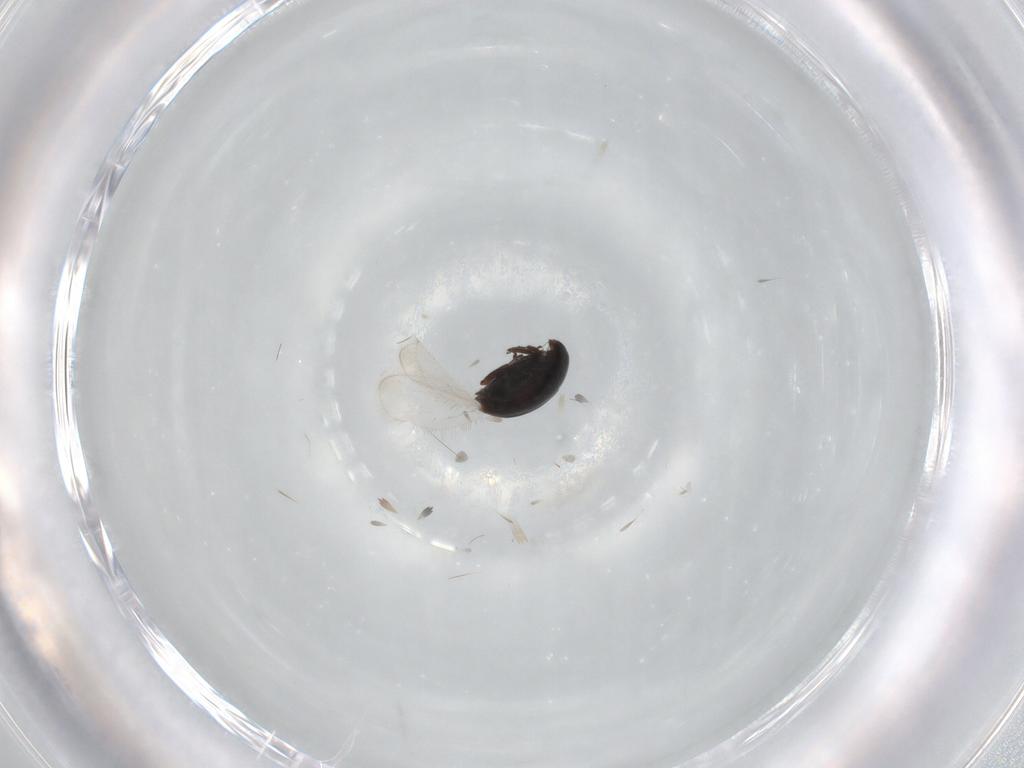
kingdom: Animalia
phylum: Arthropoda
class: Insecta
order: Coleoptera
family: Corylophidae
